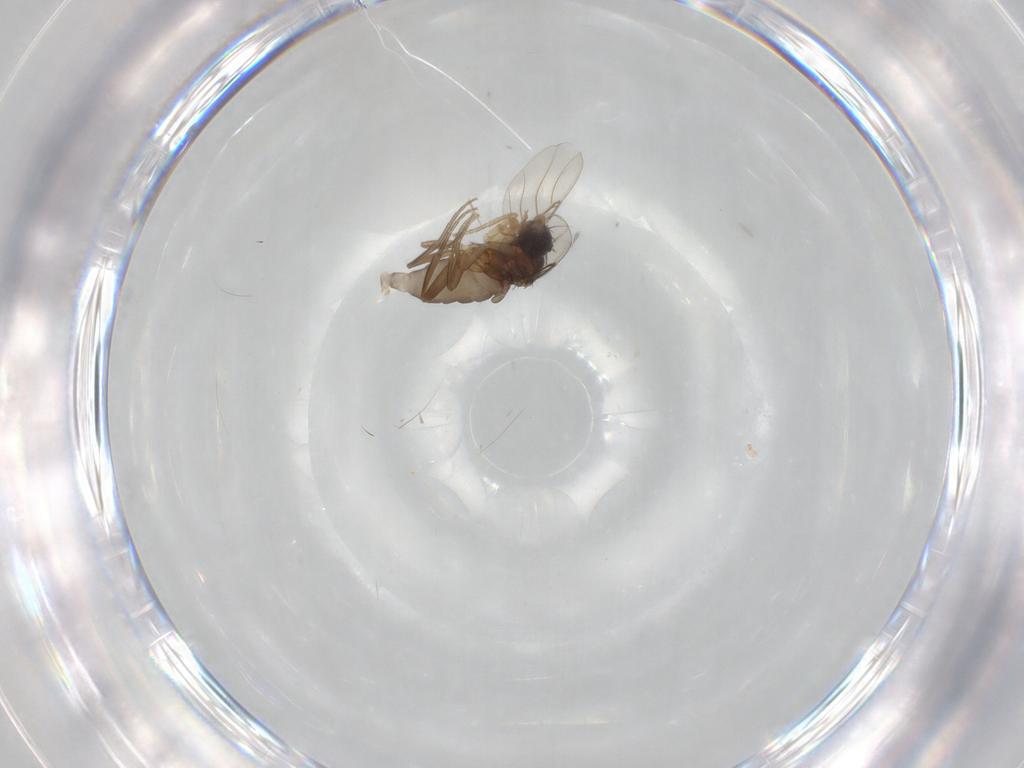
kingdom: Animalia
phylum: Arthropoda
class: Insecta
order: Diptera
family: Phoridae
